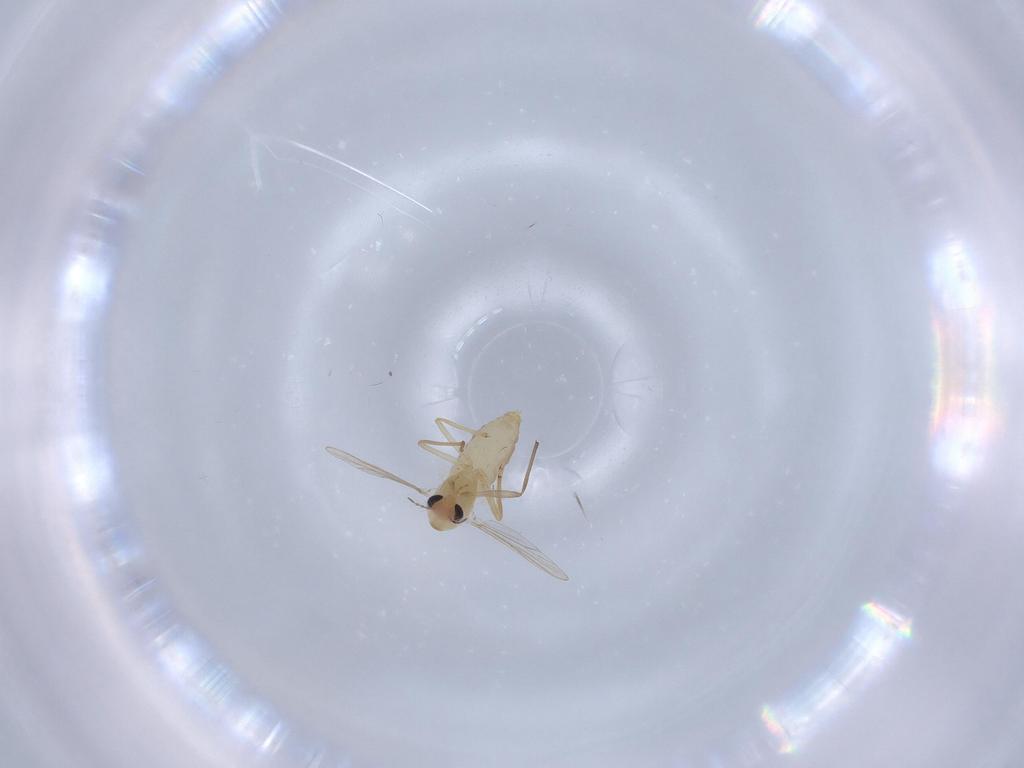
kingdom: Animalia
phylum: Arthropoda
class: Insecta
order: Diptera
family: Chironomidae
